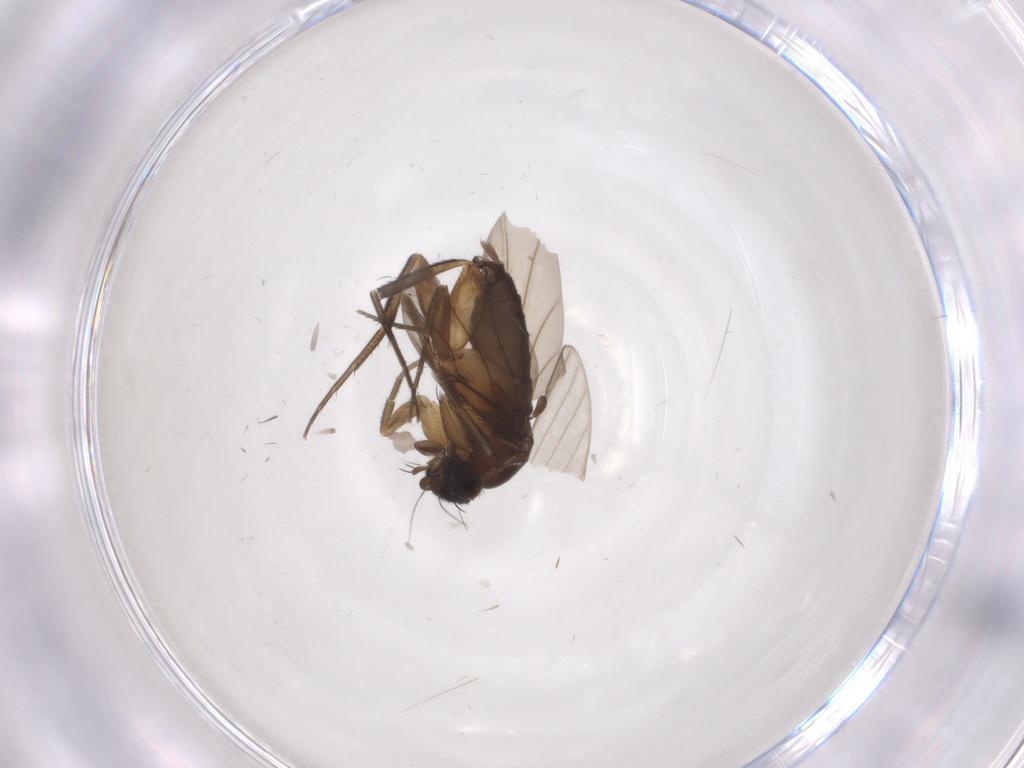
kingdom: Animalia
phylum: Arthropoda
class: Insecta
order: Diptera
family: Phoridae
